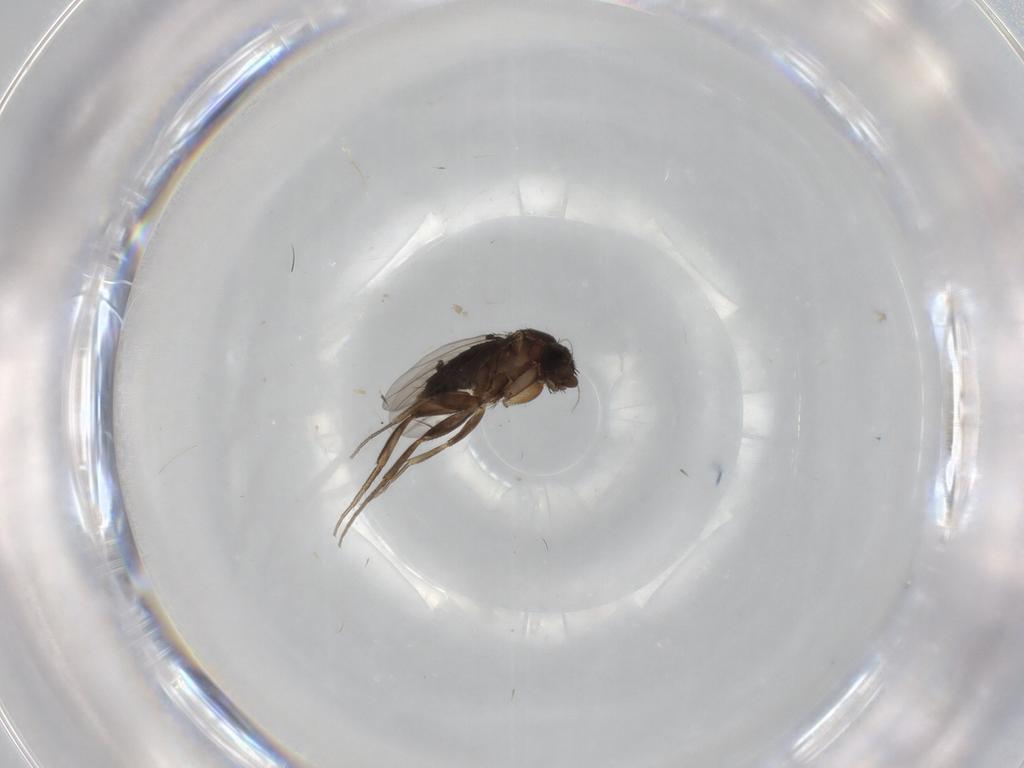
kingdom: Animalia
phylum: Arthropoda
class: Insecta
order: Diptera
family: Phoridae
